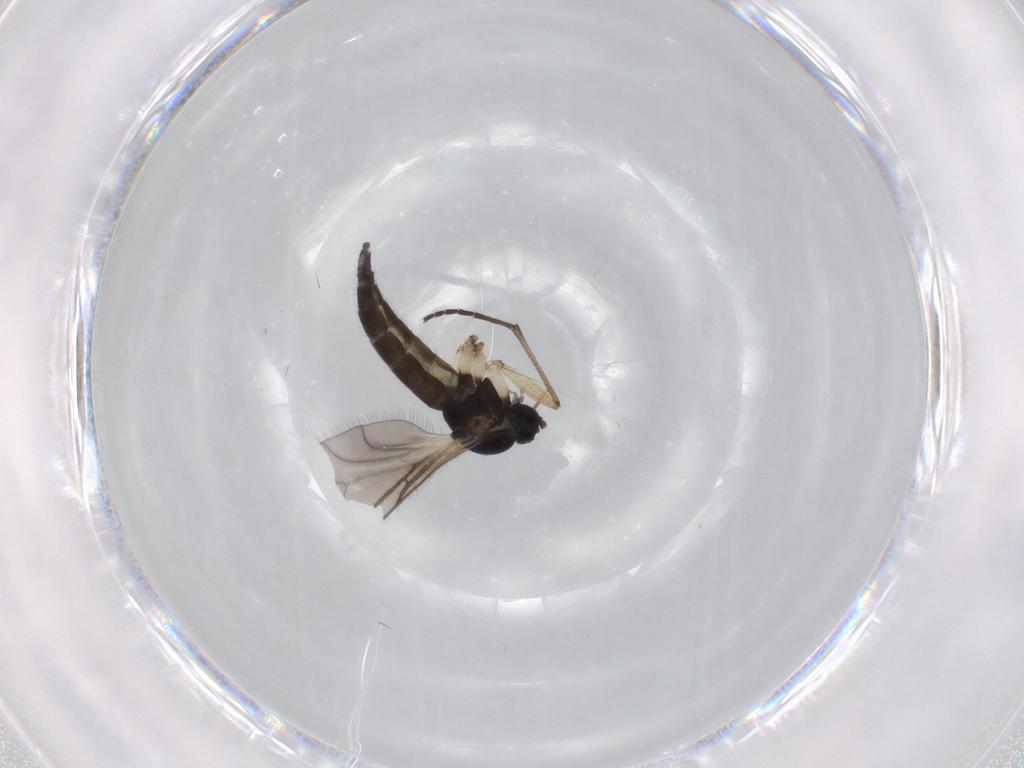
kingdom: Animalia
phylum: Arthropoda
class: Insecta
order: Diptera
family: Sciaridae
